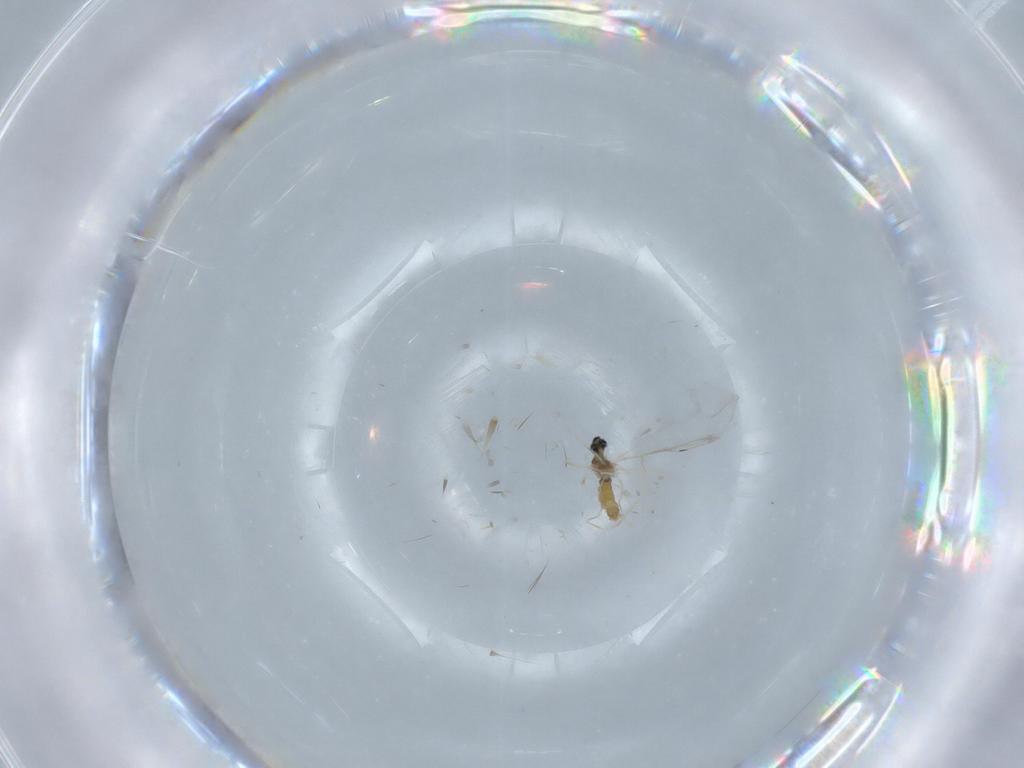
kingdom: Animalia
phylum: Arthropoda
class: Insecta
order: Diptera
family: Cecidomyiidae
